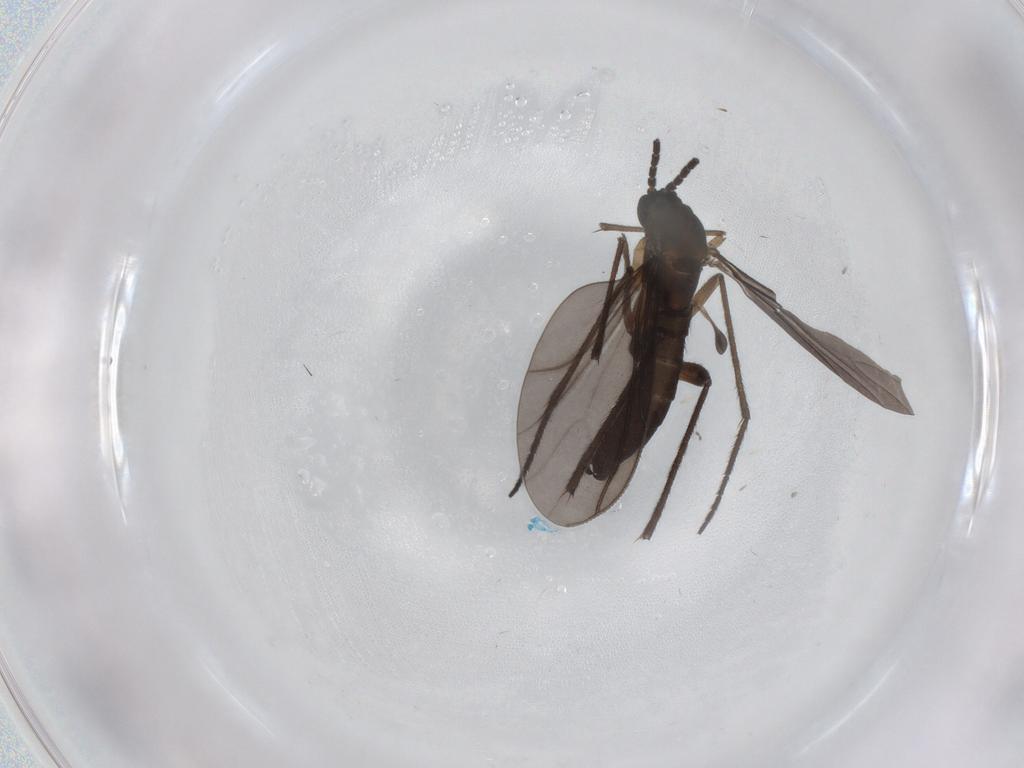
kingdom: Animalia
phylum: Arthropoda
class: Insecta
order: Diptera
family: Sciaridae
